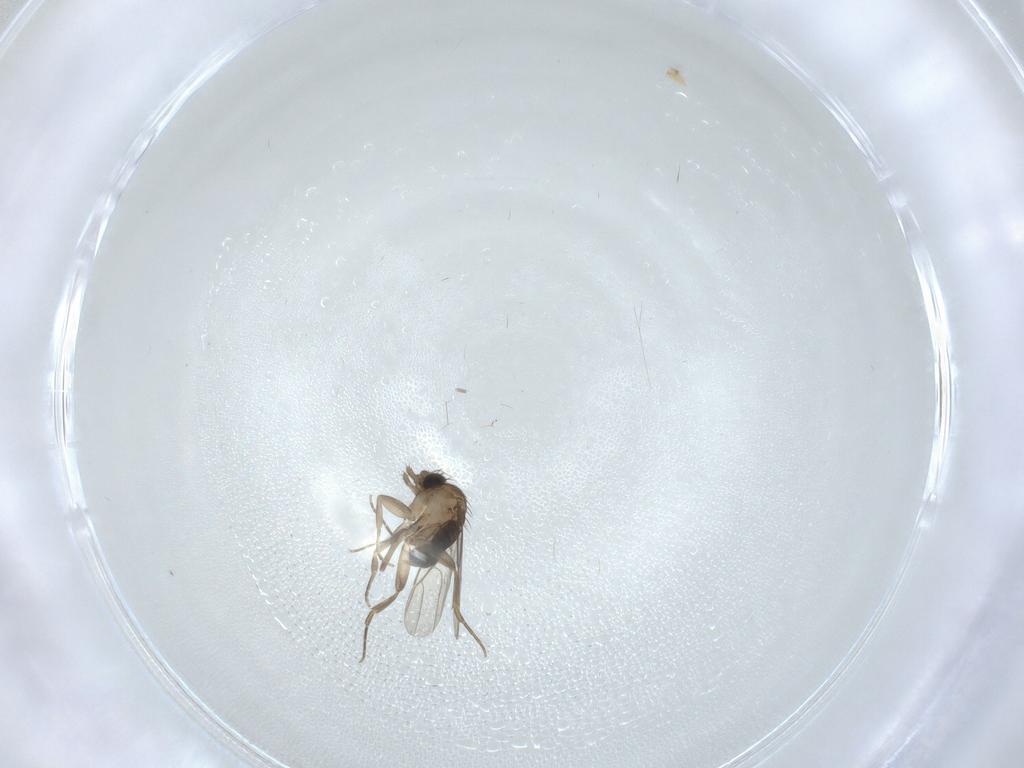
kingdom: Animalia
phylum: Arthropoda
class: Insecta
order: Diptera
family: Phoridae
